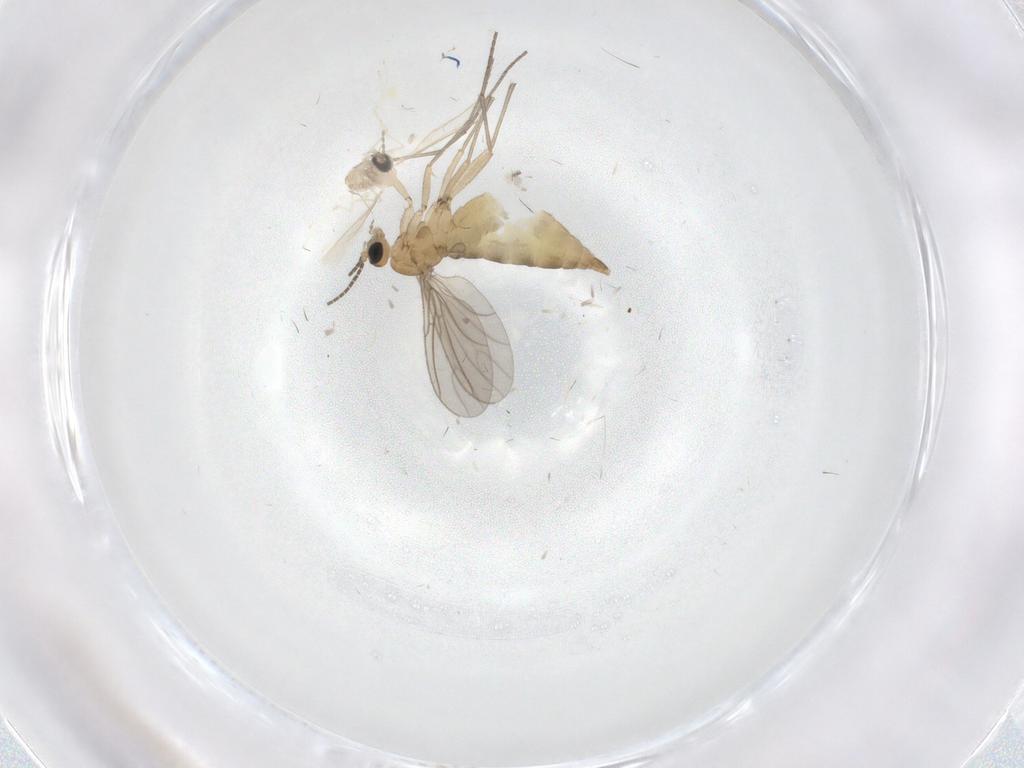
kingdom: Animalia
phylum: Arthropoda
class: Insecta
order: Diptera
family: Sciaridae
